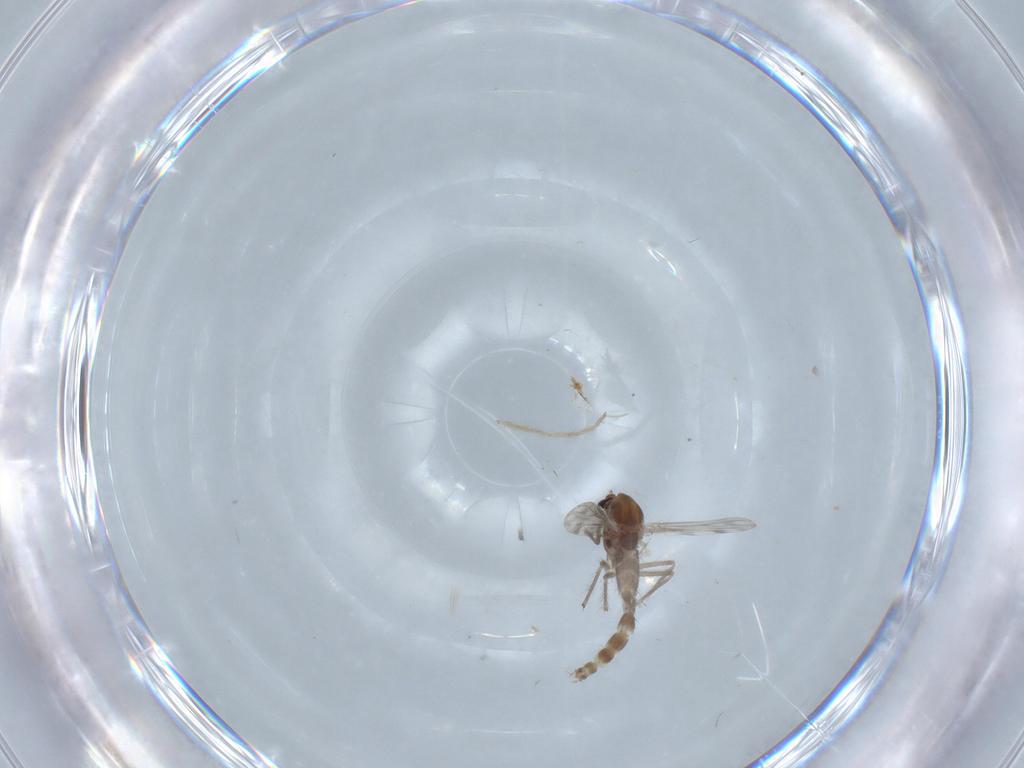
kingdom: Animalia
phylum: Arthropoda
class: Insecta
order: Diptera
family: Chironomidae
